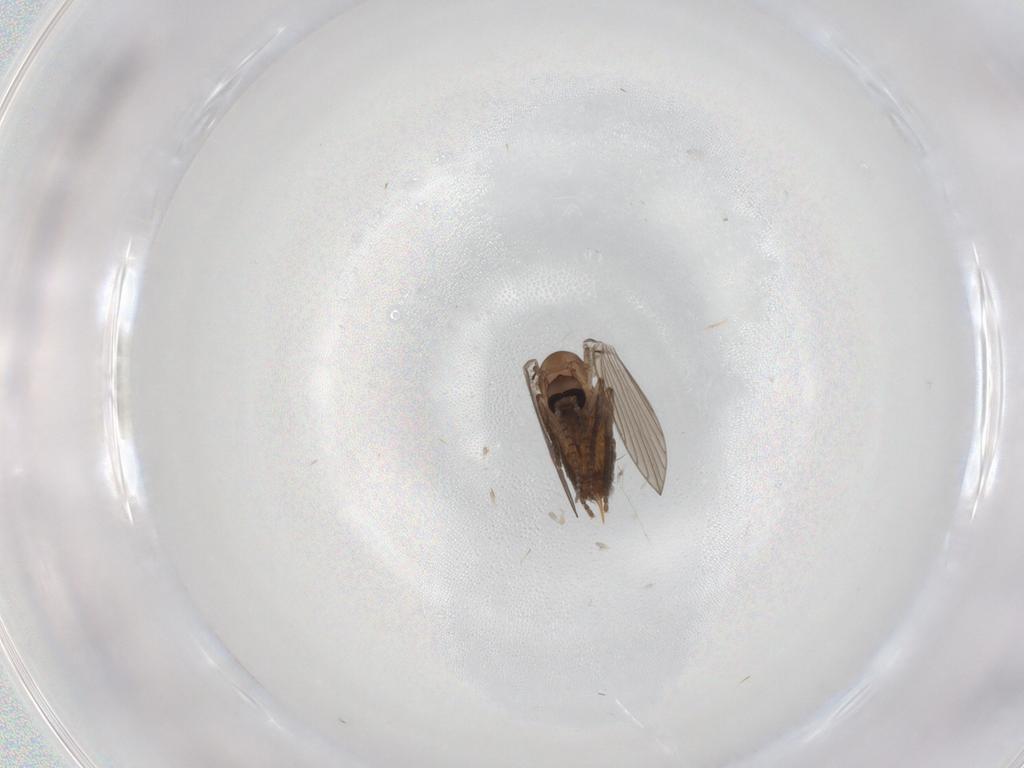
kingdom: Animalia
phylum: Arthropoda
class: Insecta
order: Diptera
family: Psychodidae
